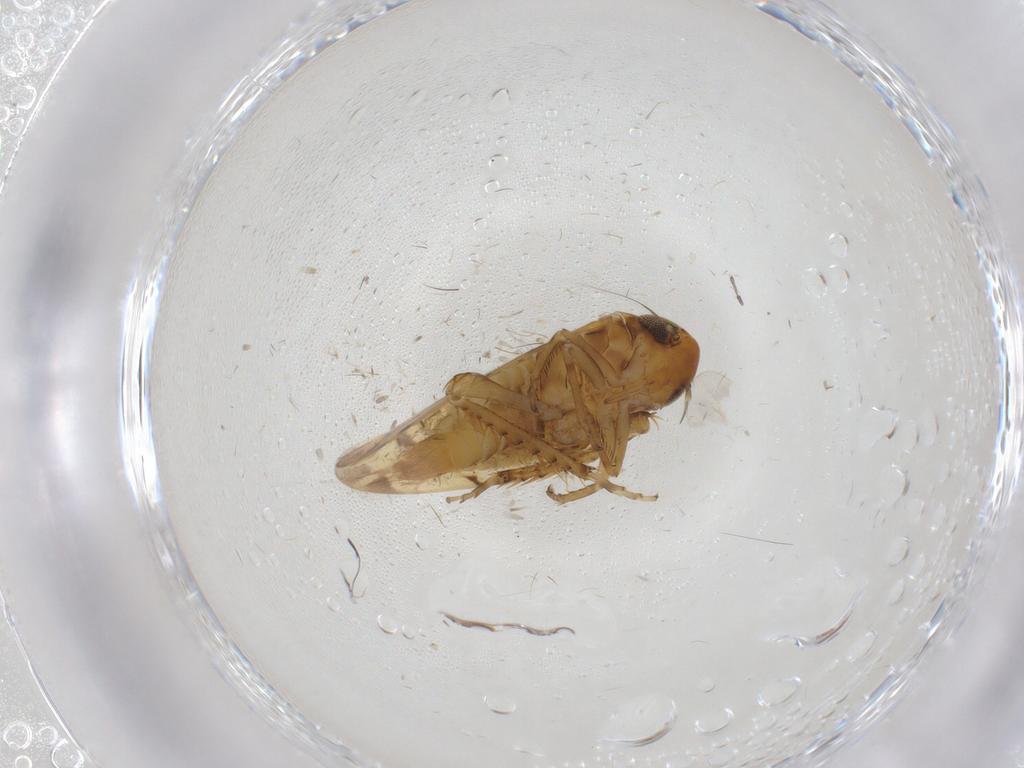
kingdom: Animalia
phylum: Arthropoda
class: Insecta
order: Hemiptera
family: Cicadellidae
